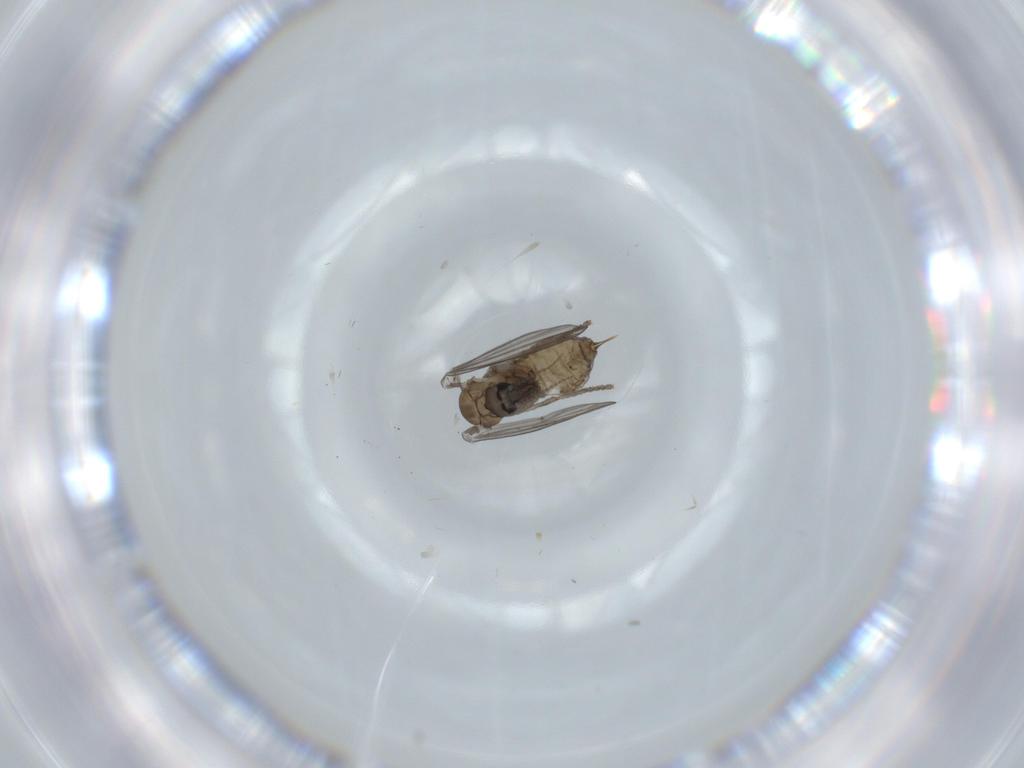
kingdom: Animalia
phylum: Arthropoda
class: Insecta
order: Diptera
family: Psychodidae
